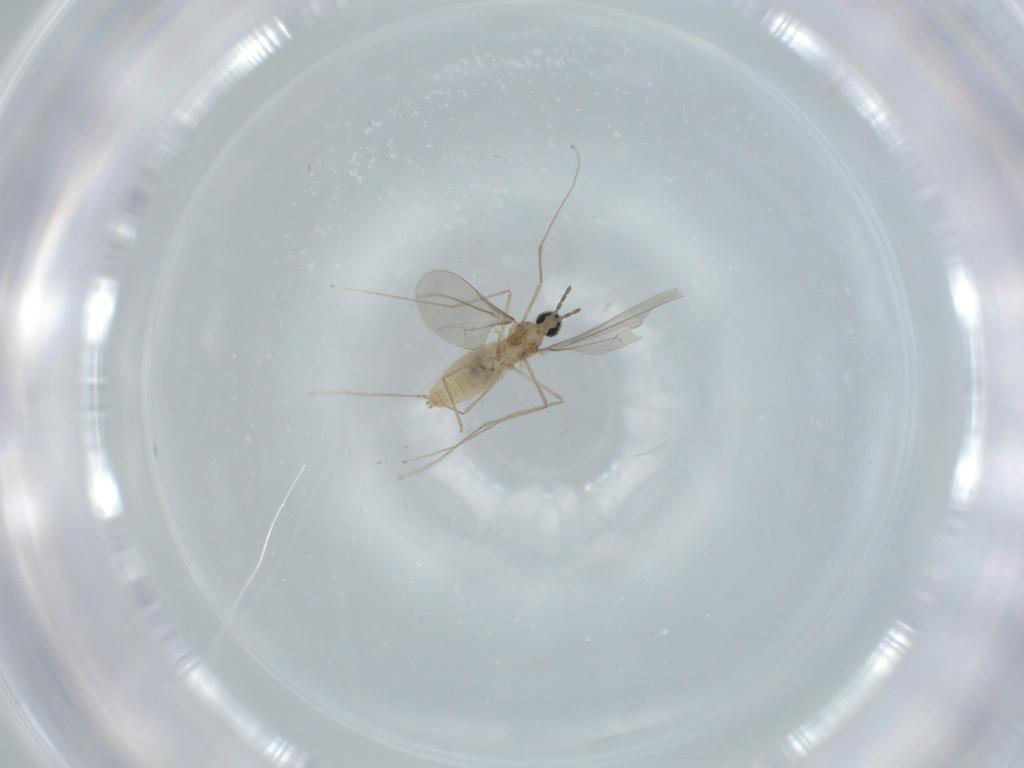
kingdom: Animalia
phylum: Arthropoda
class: Insecta
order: Diptera
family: Cecidomyiidae
